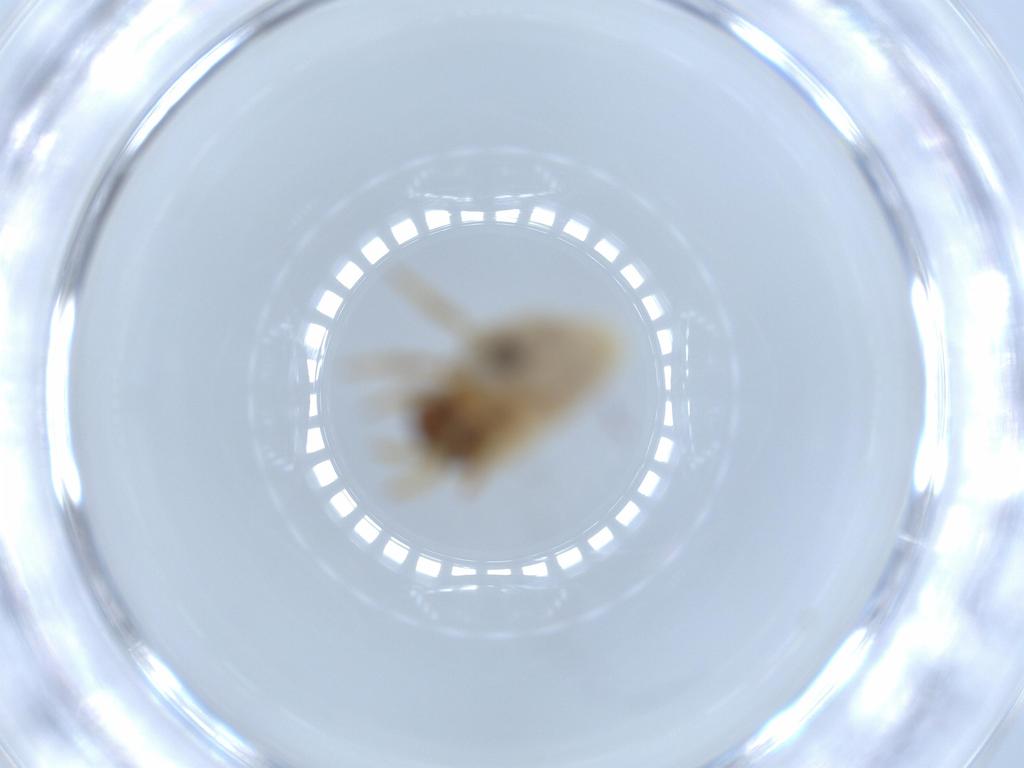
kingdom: Animalia
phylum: Arthropoda
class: Insecta
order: Coleoptera
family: Chrysomelidae
